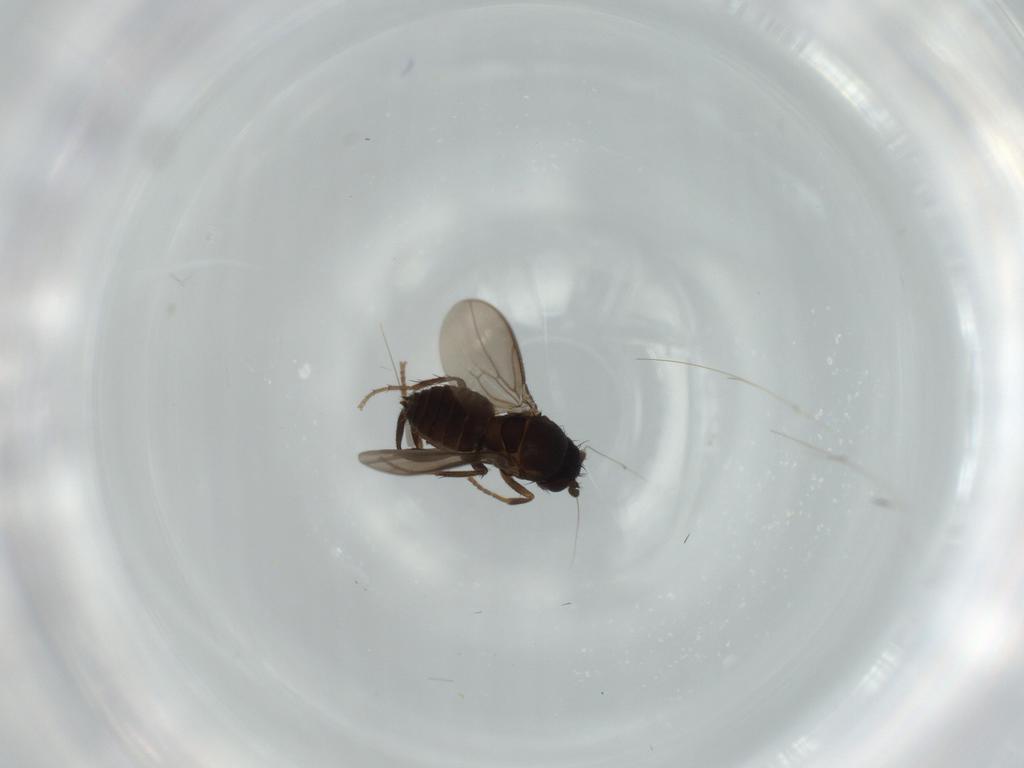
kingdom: Animalia
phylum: Arthropoda
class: Insecta
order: Diptera
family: Sphaeroceridae
